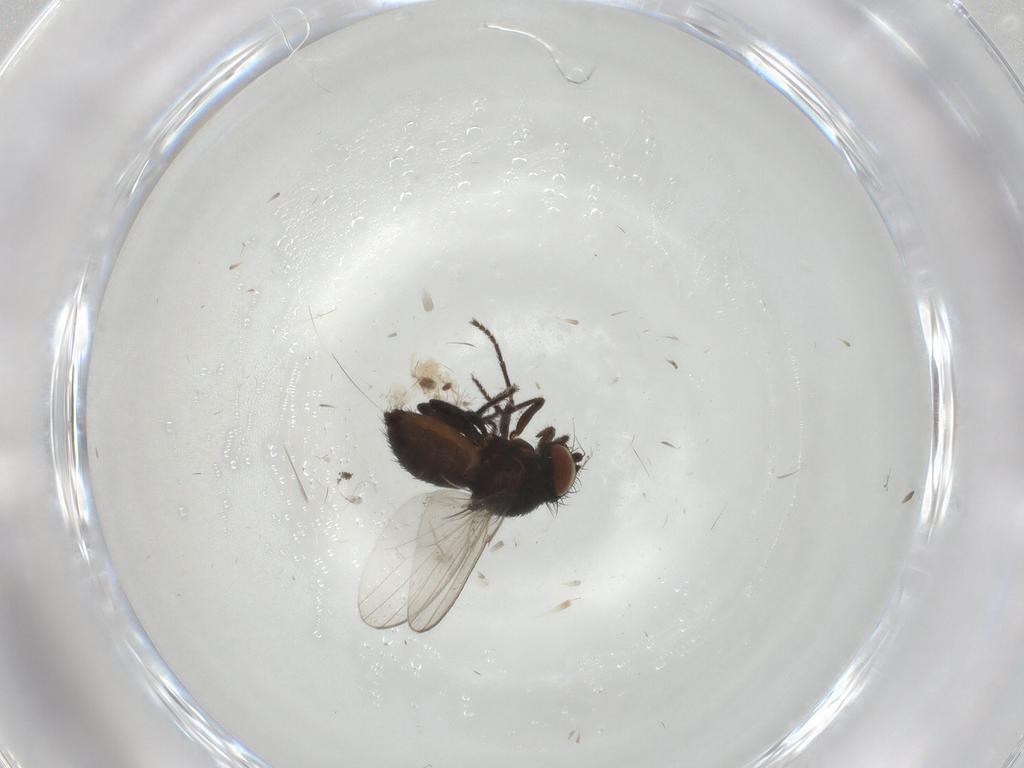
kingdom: Animalia
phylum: Arthropoda
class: Insecta
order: Diptera
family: Milichiidae
